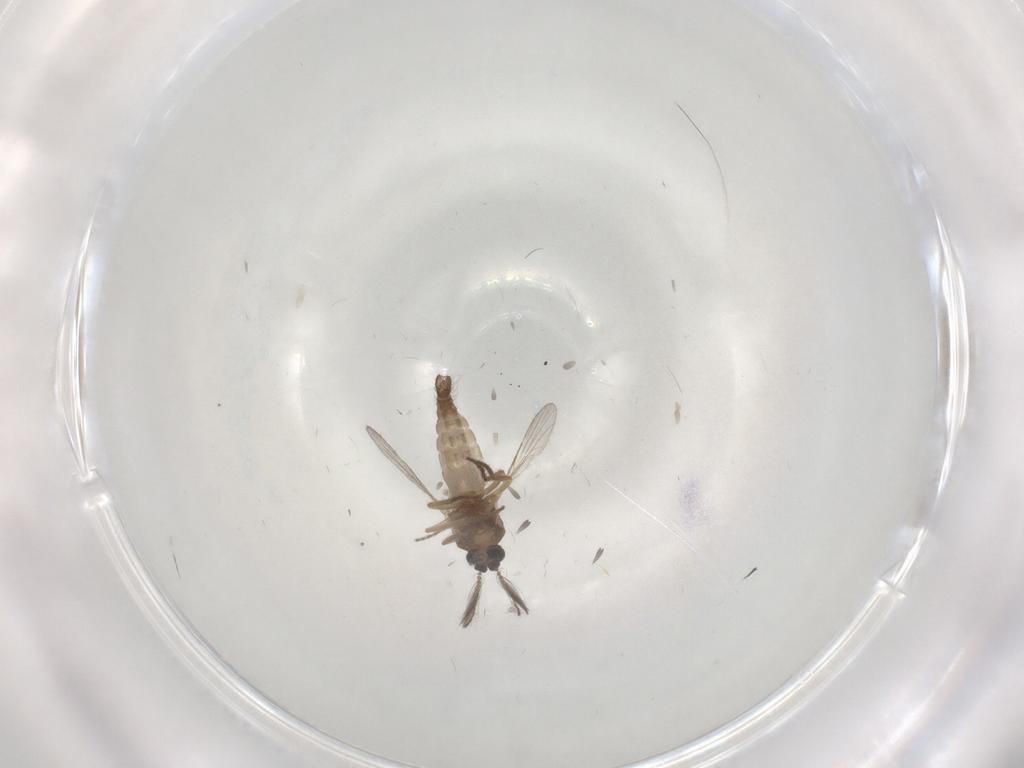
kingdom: Animalia
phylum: Arthropoda
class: Insecta
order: Diptera
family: Ceratopogonidae
